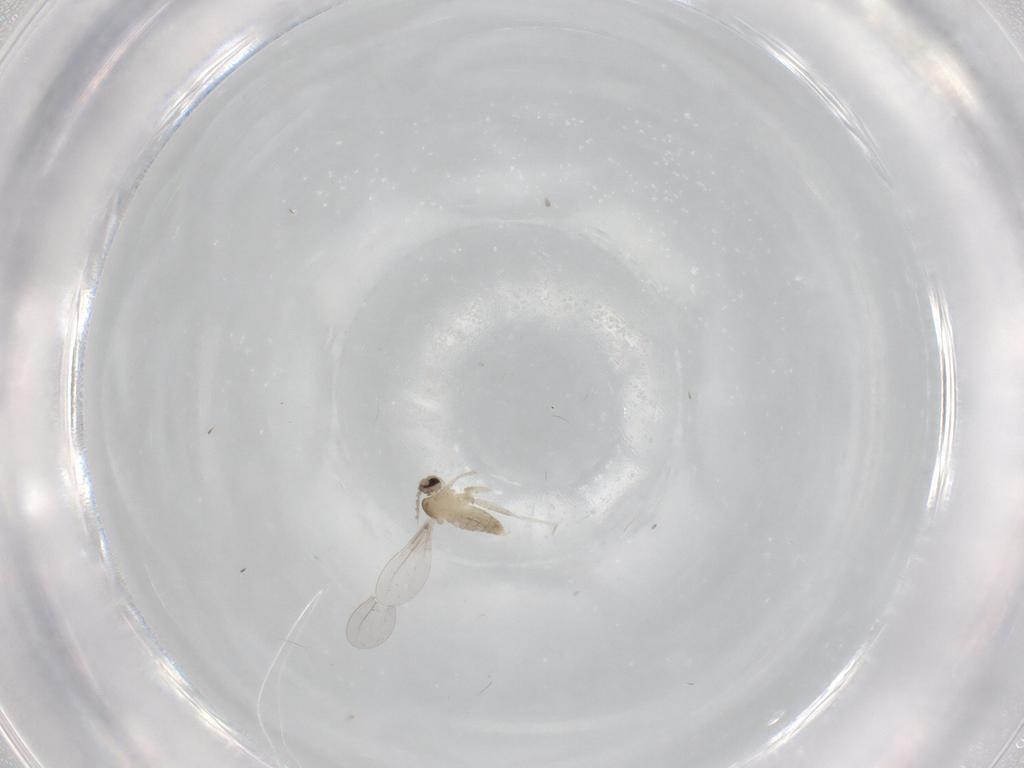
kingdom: Animalia
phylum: Arthropoda
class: Insecta
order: Diptera
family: Cecidomyiidae
